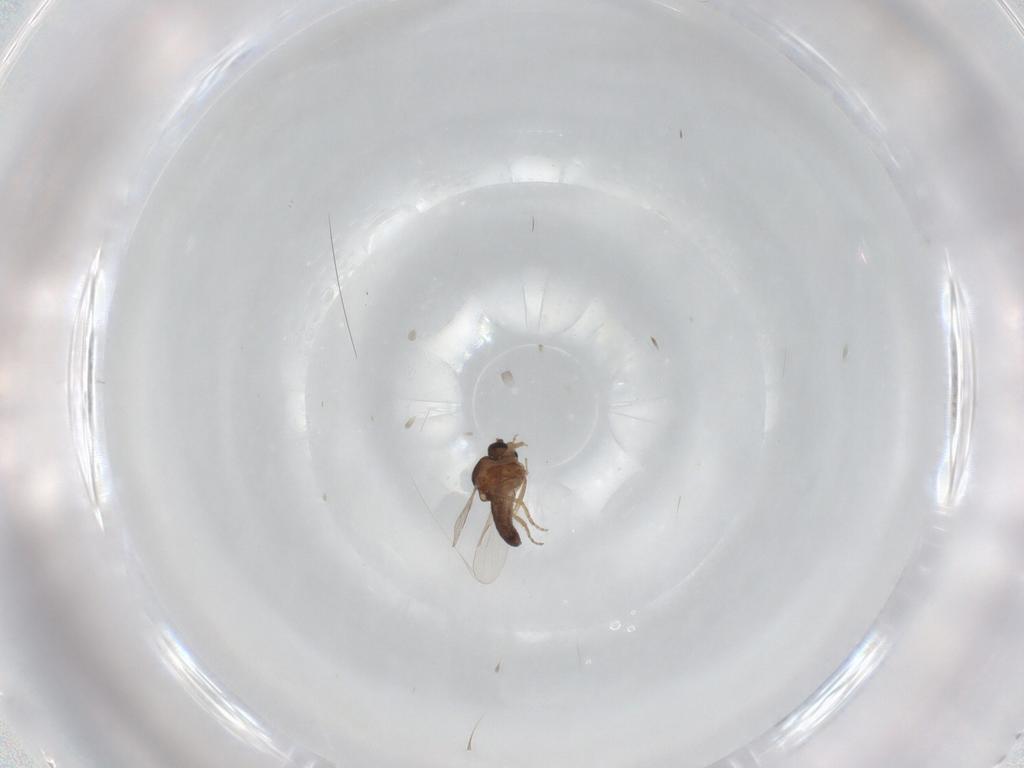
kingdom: Animalia
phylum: Arthropoda
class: Insecta
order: Diptera
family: Ceratopogonidae
